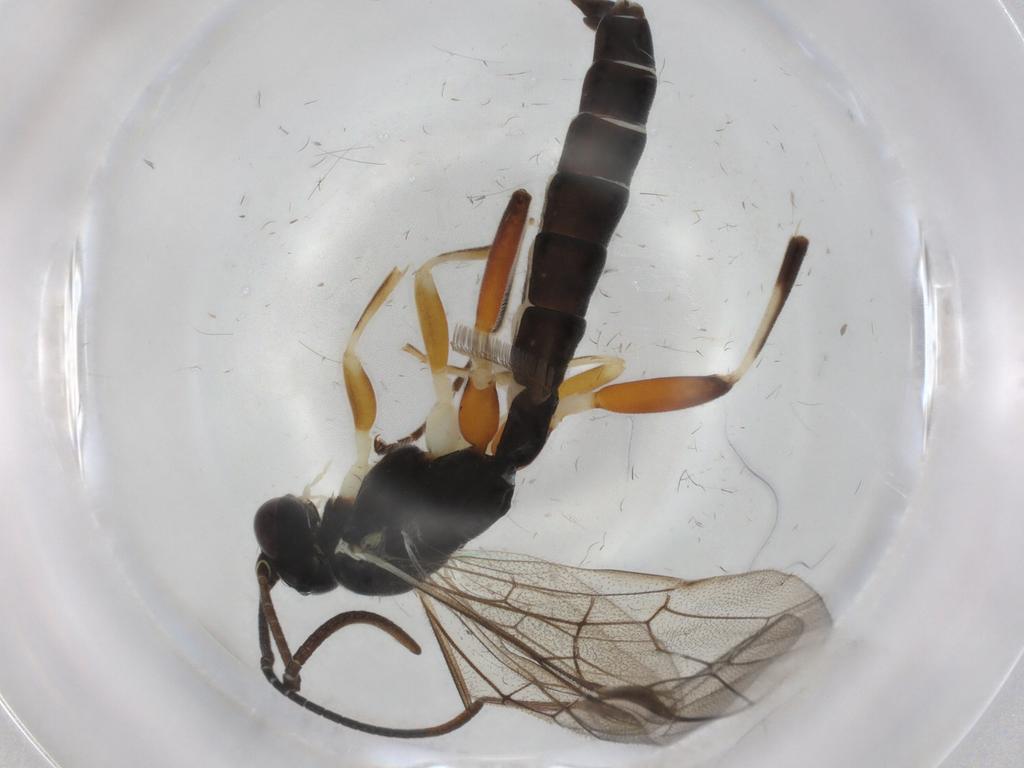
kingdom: Animalia
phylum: Arthropoda
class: Insecta
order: Hymenoptera
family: Ichneumonidae
